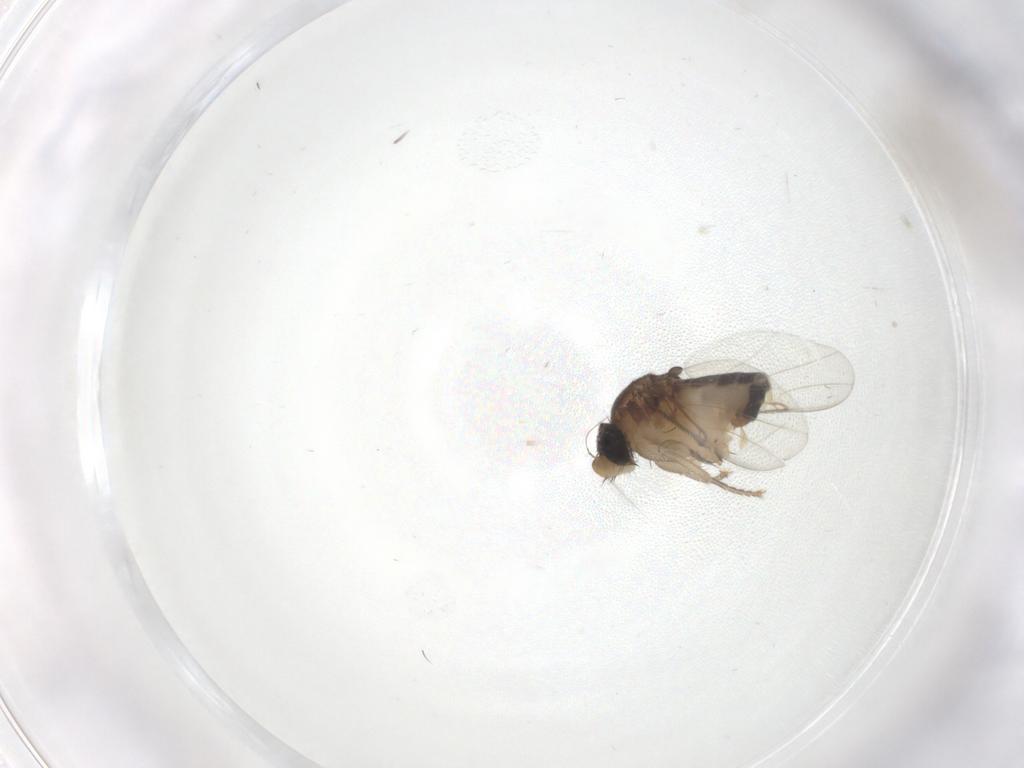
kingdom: Animalia
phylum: Arthropoda
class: Insecta
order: Diptera
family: Phoridae
